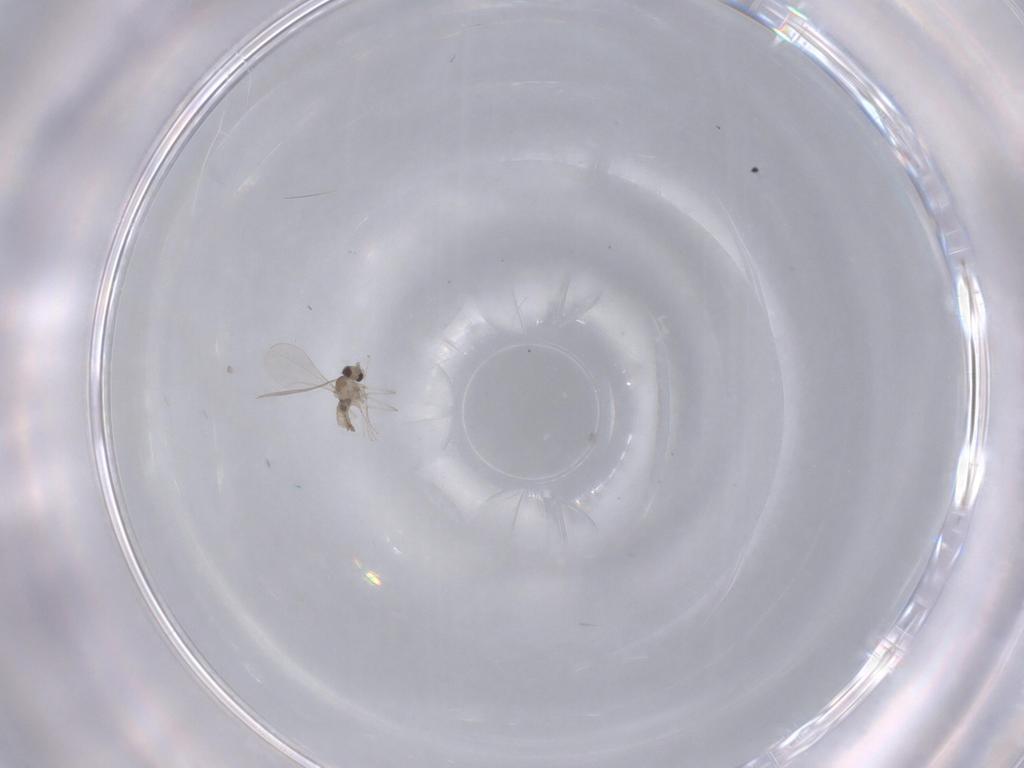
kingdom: Animalia
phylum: Arthropoda
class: Insecta
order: Diptera
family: Cecidomyiidae
